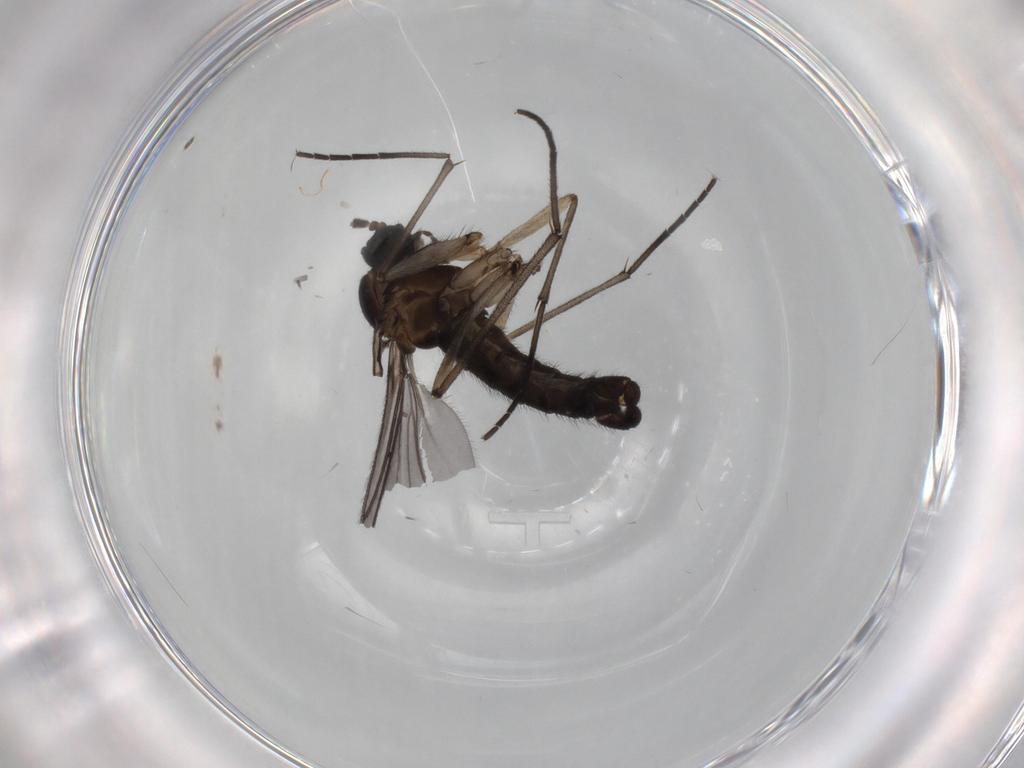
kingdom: Animalia
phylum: Arthropoda
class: Insecta
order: Diptera
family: Sciaridae
